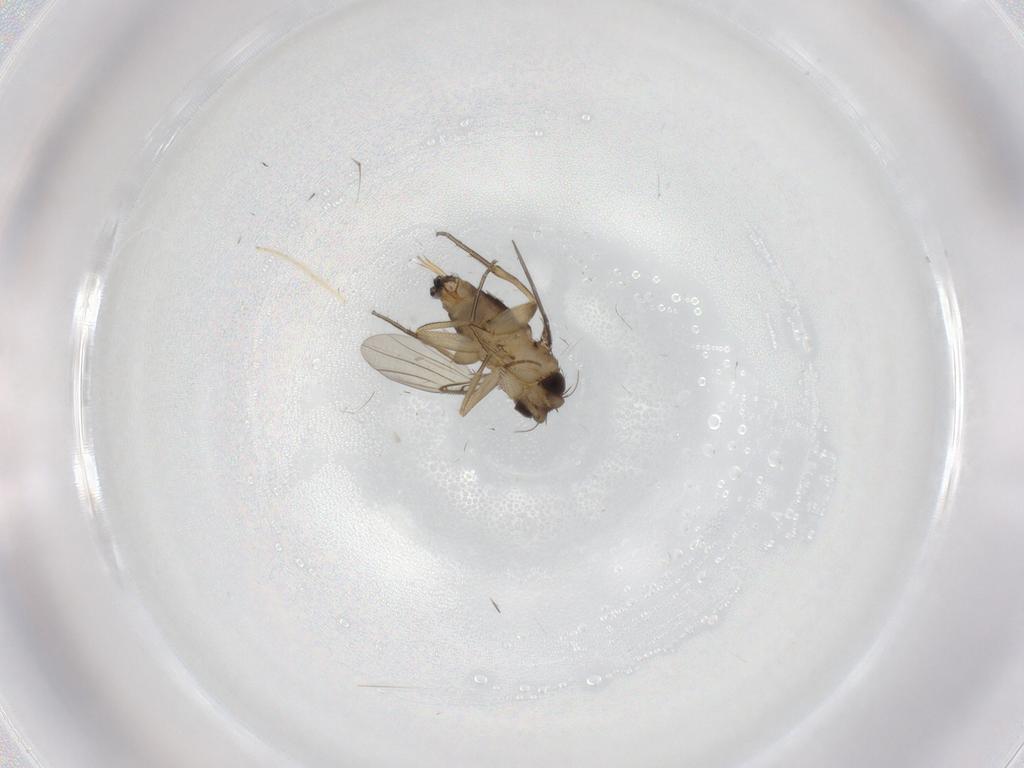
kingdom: Animalia
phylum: Arthropoda
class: Insecta
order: Diptera
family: Phoridae
